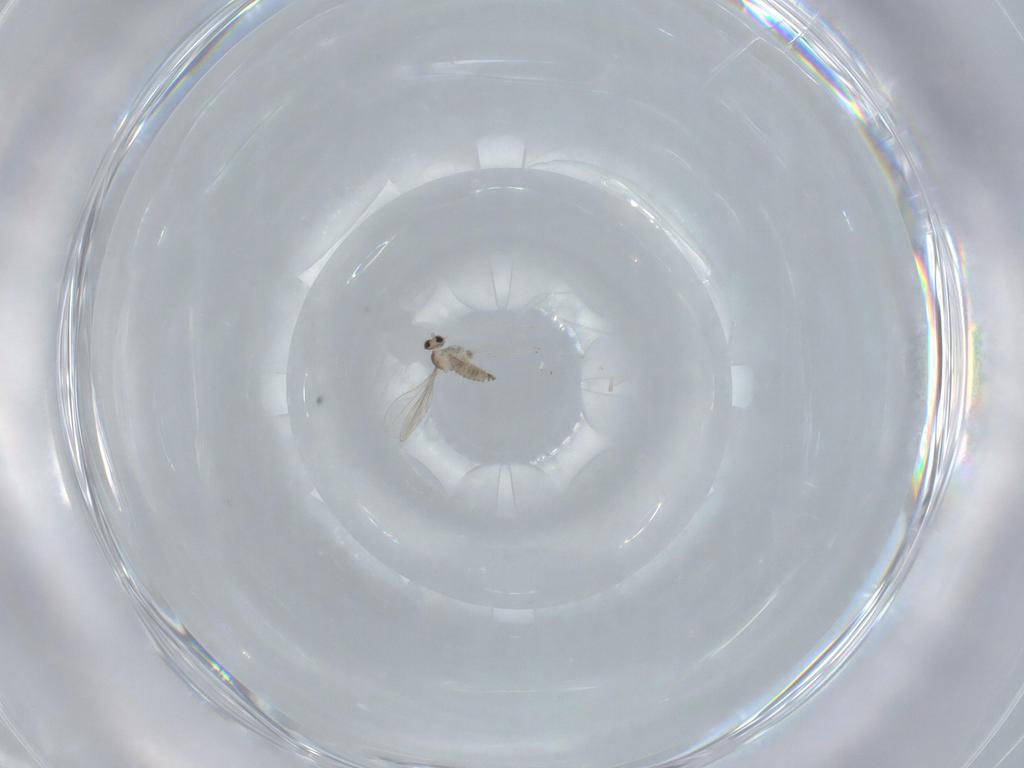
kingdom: Animalia
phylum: Arthropoda
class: Insecta
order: Diptera
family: Cecidomyiidae
